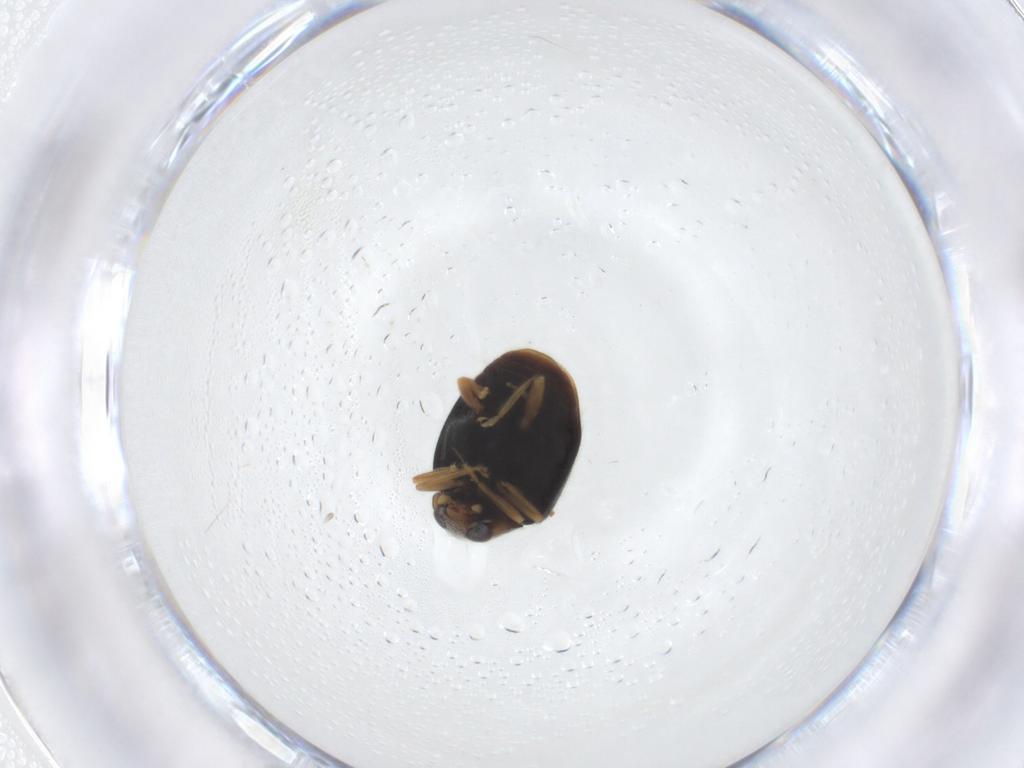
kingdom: Animalia
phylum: Arthropoda
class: Insecta
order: Coleoptera
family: Coccinellidae
